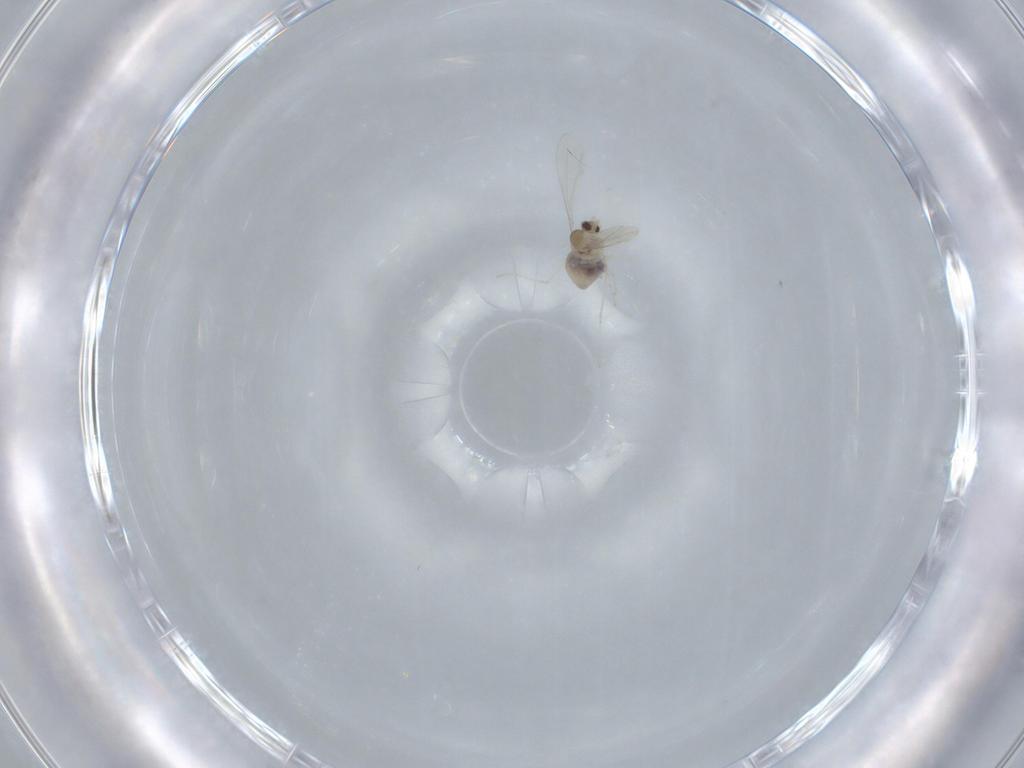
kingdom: Animalia
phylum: Arthropoda
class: Insecta
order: Diptera
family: Cecidomyiidae
